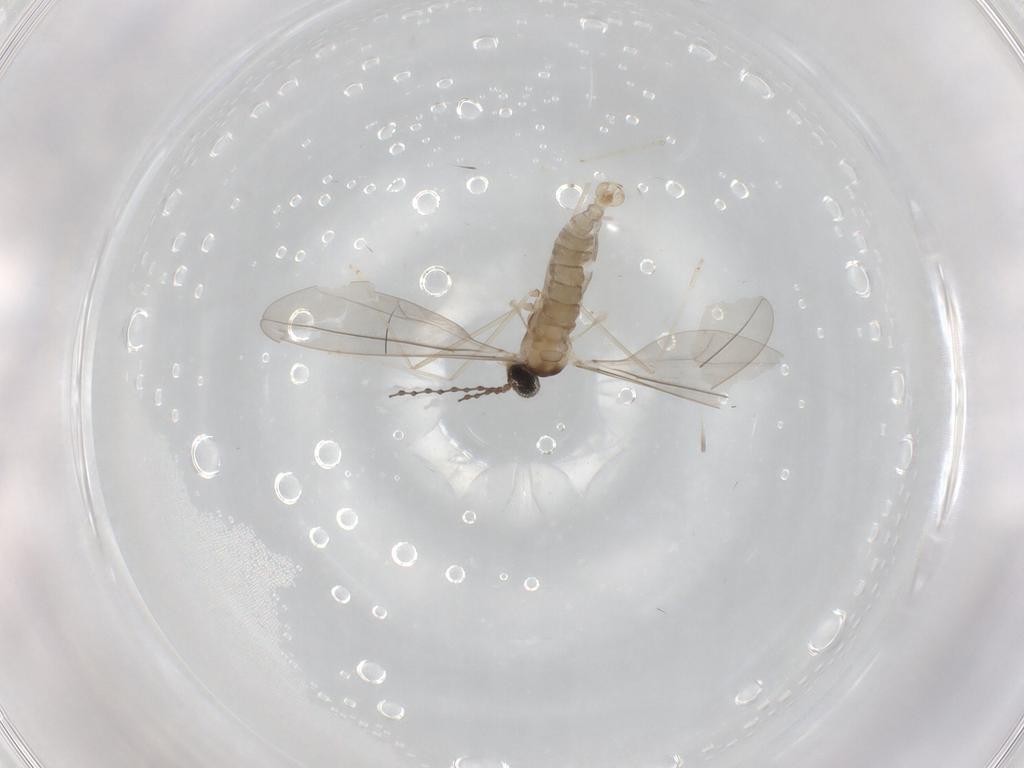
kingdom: Animalia
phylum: Arthropoda
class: Insecta
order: Diptera
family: Cecidomyiidae
